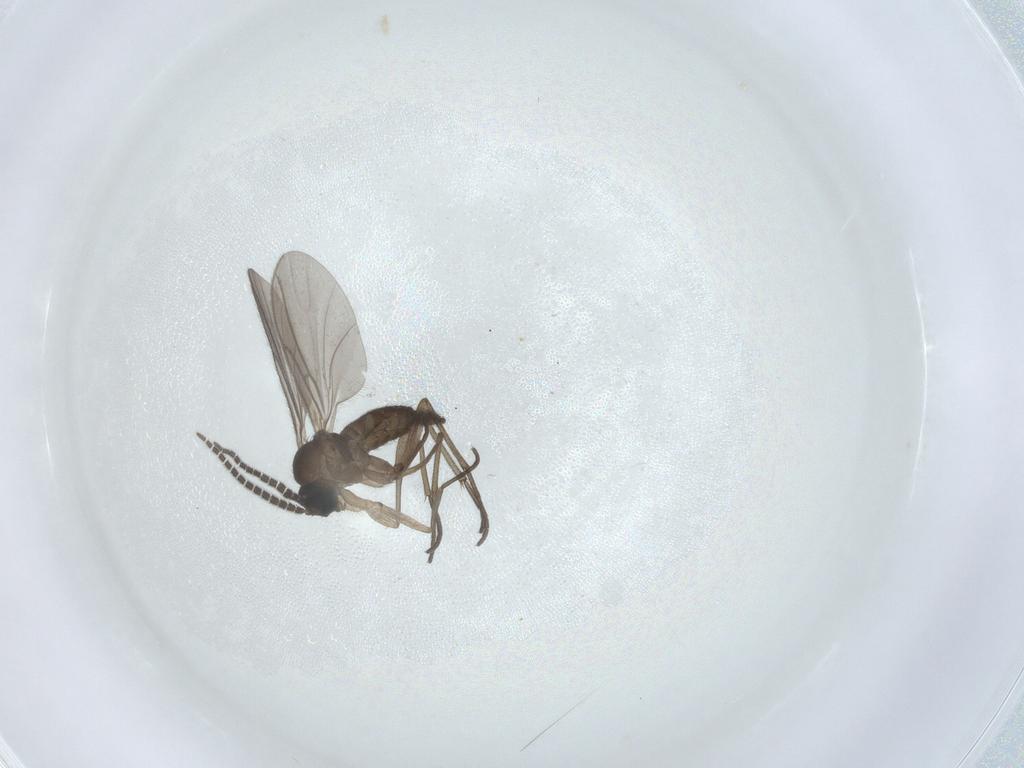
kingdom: Animalia
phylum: Arthropoda
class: Insecta
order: Diptera
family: Sciaridae
